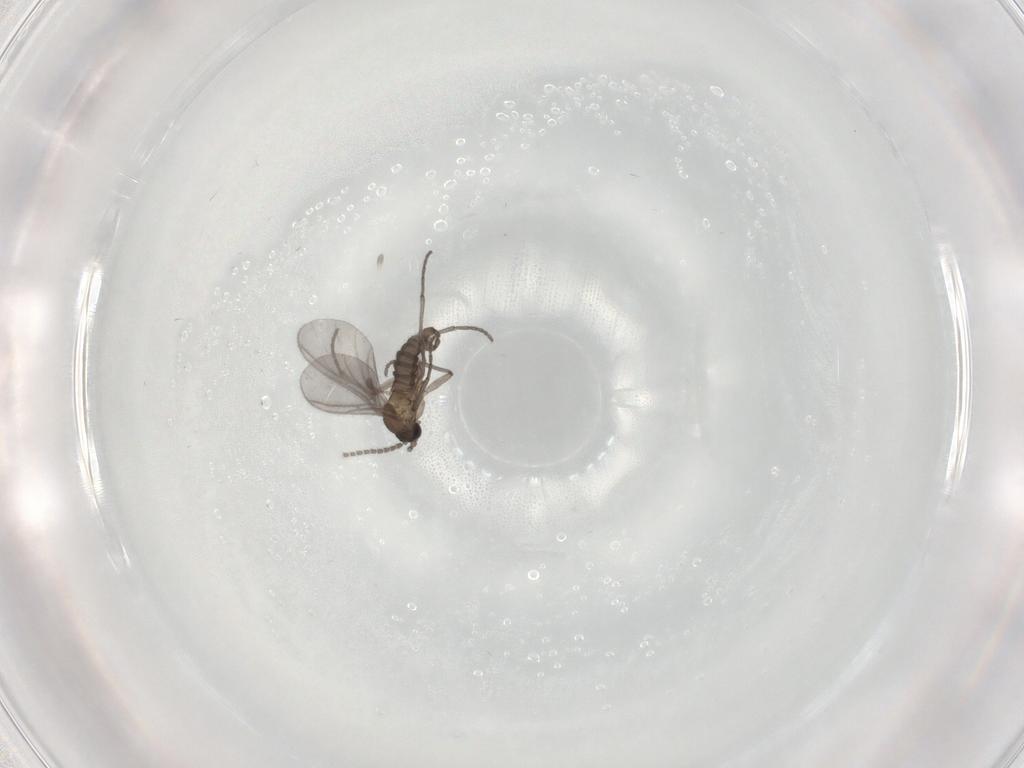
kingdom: Animalia
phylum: Arthropoda
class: Insecta
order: Diptera
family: Sciaridae
